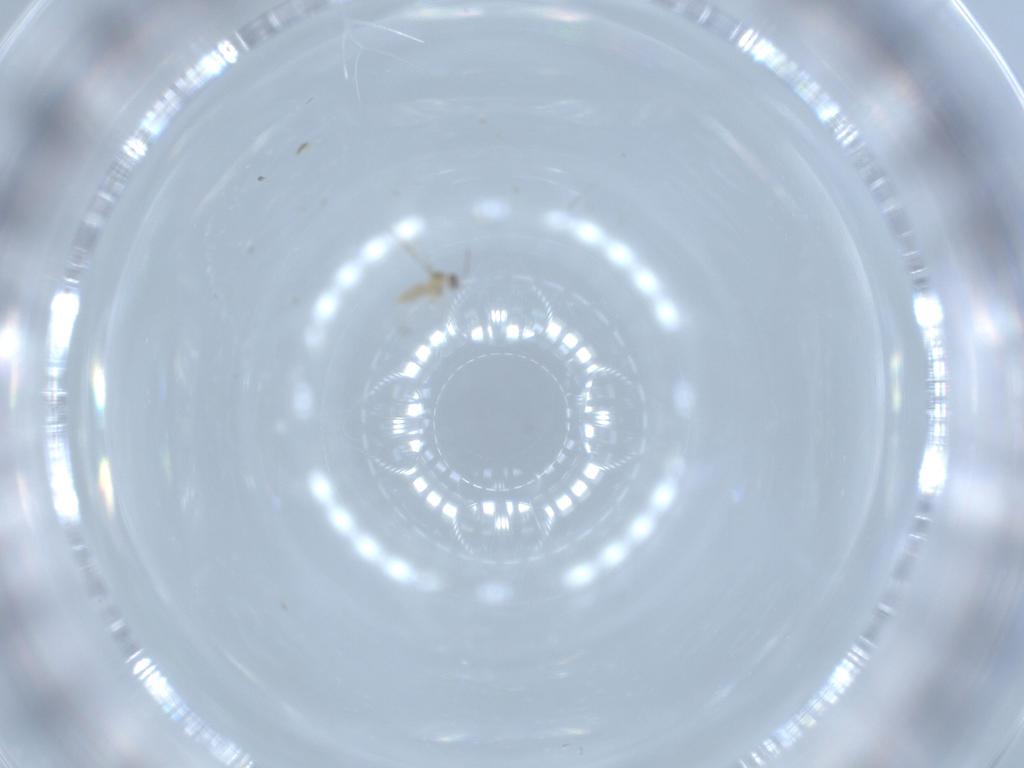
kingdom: Animalia
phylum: Arthropoda
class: Insecta
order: Diptera
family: Cecidomyiidae
